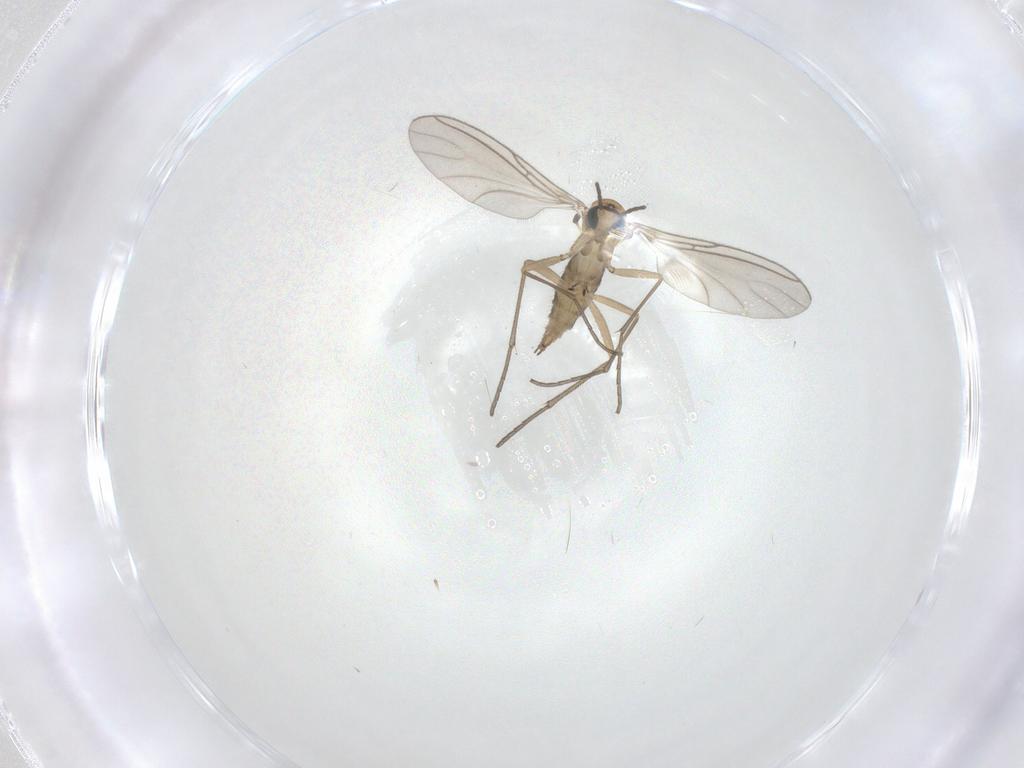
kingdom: Animalia
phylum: Arthropoda
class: Insecta
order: Diptera
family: Sciaridae
